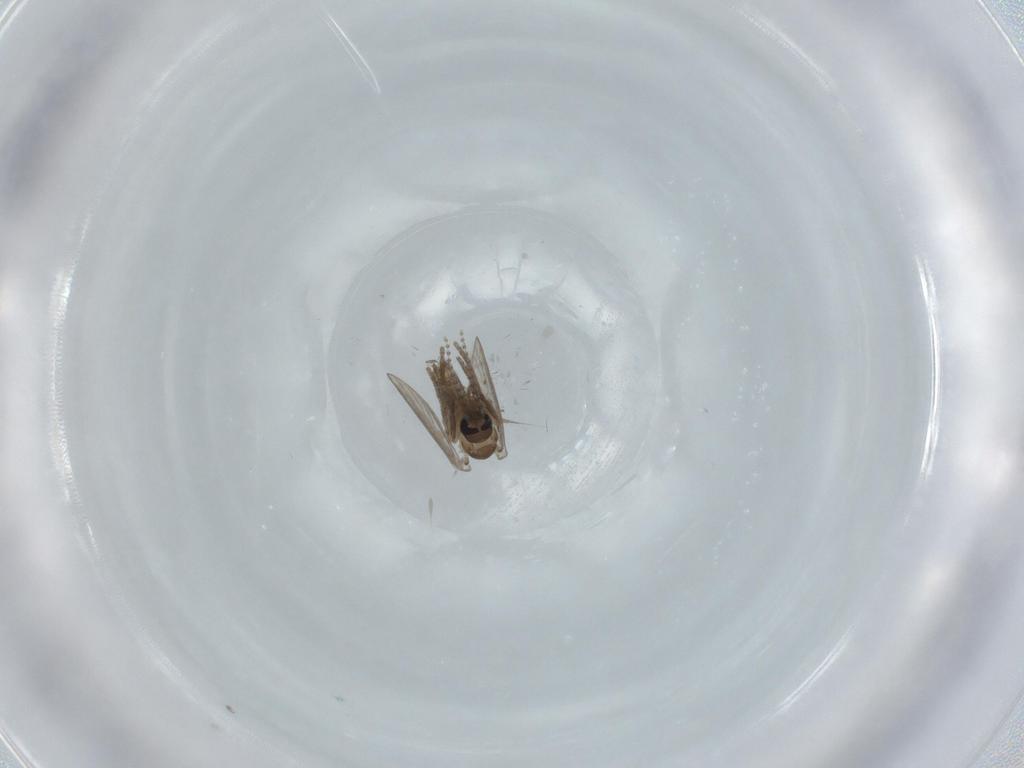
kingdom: Animalia
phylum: Arthropoda
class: Insecta
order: Diptera
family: Psychodidae
